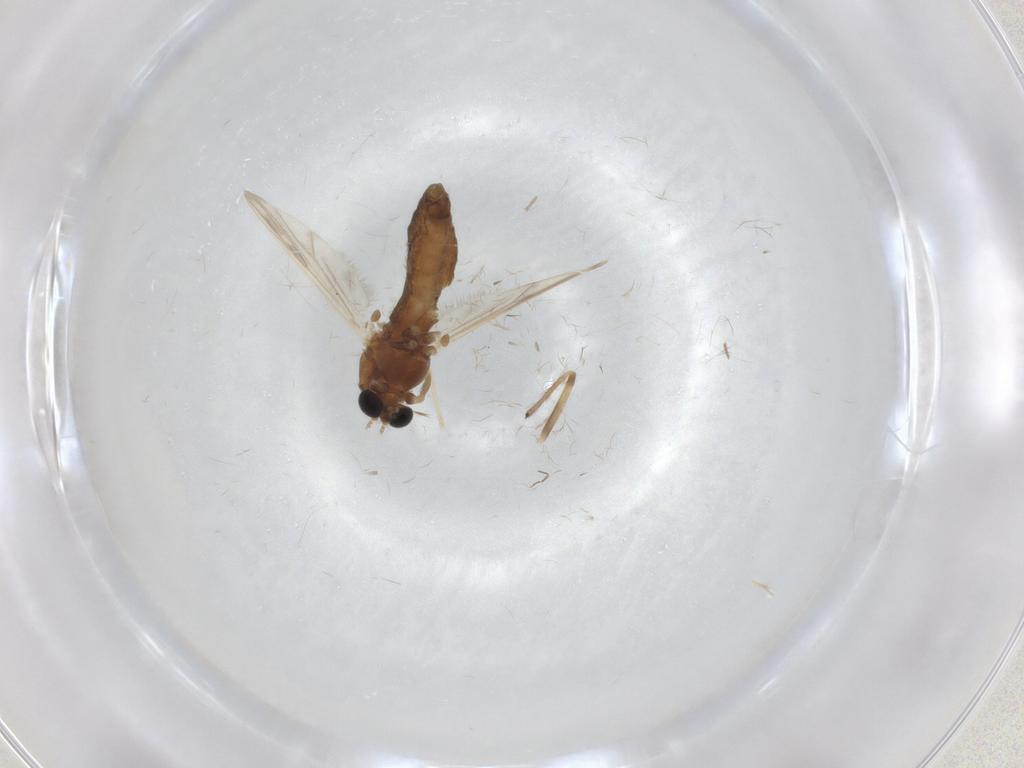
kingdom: Animalia
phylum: Arthropoda
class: Insecta
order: Diptera
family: Chironomidae
